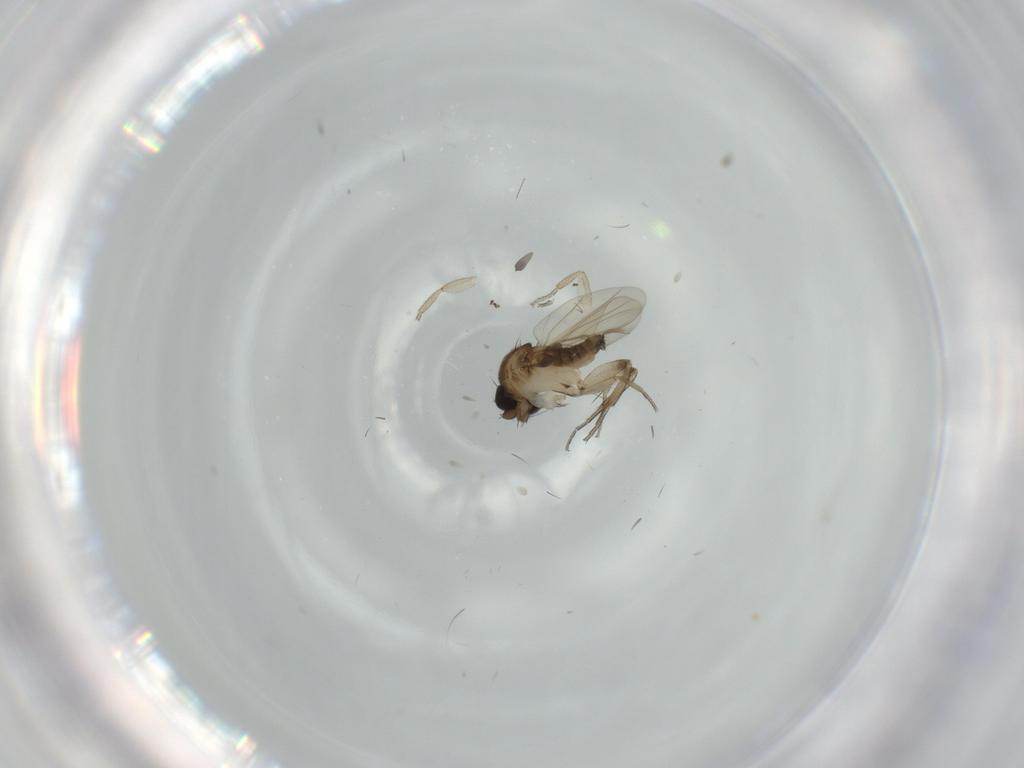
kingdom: Animalia
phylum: Arthropoda
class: Insecta
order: Diptera
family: Phoridae
